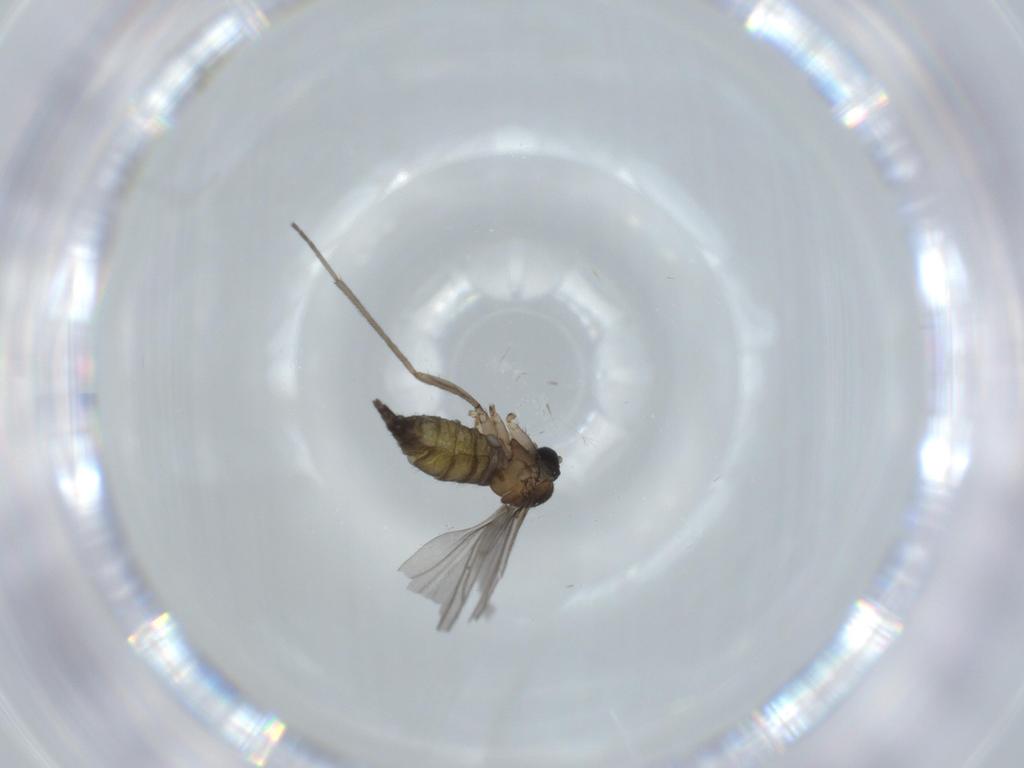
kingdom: Animalia
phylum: Arthropoda
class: Insecta
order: Diptera
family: Sciaridae
